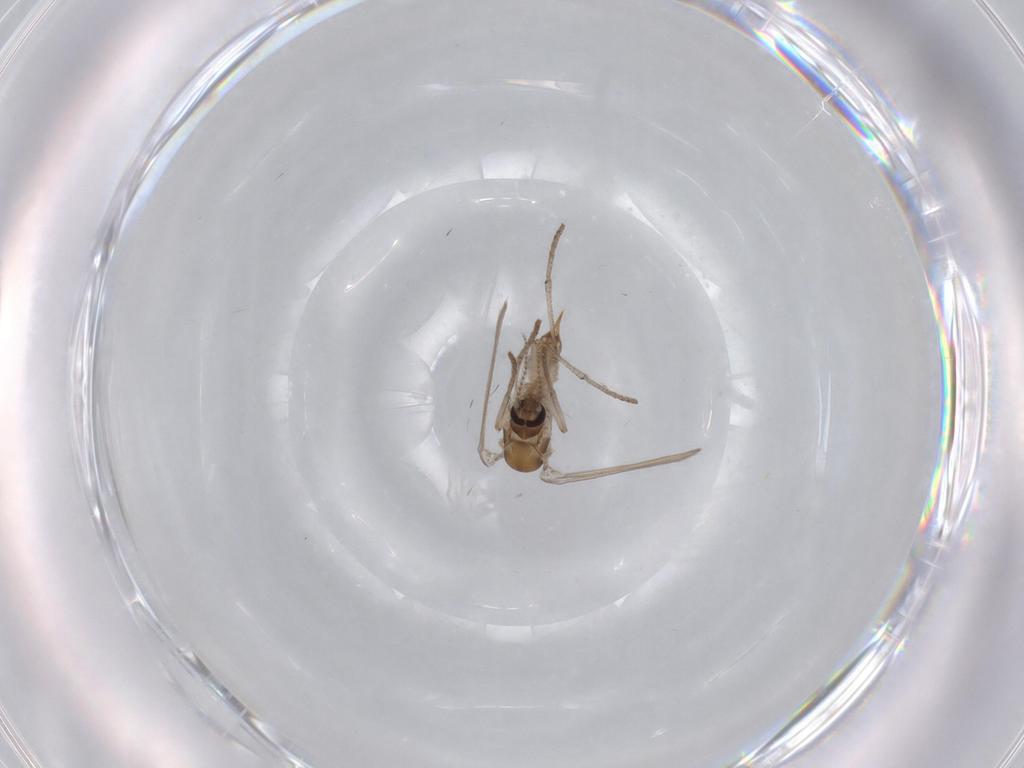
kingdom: Animalia
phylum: Arthropoda
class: Insecta
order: Diptera
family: Psychodidae
